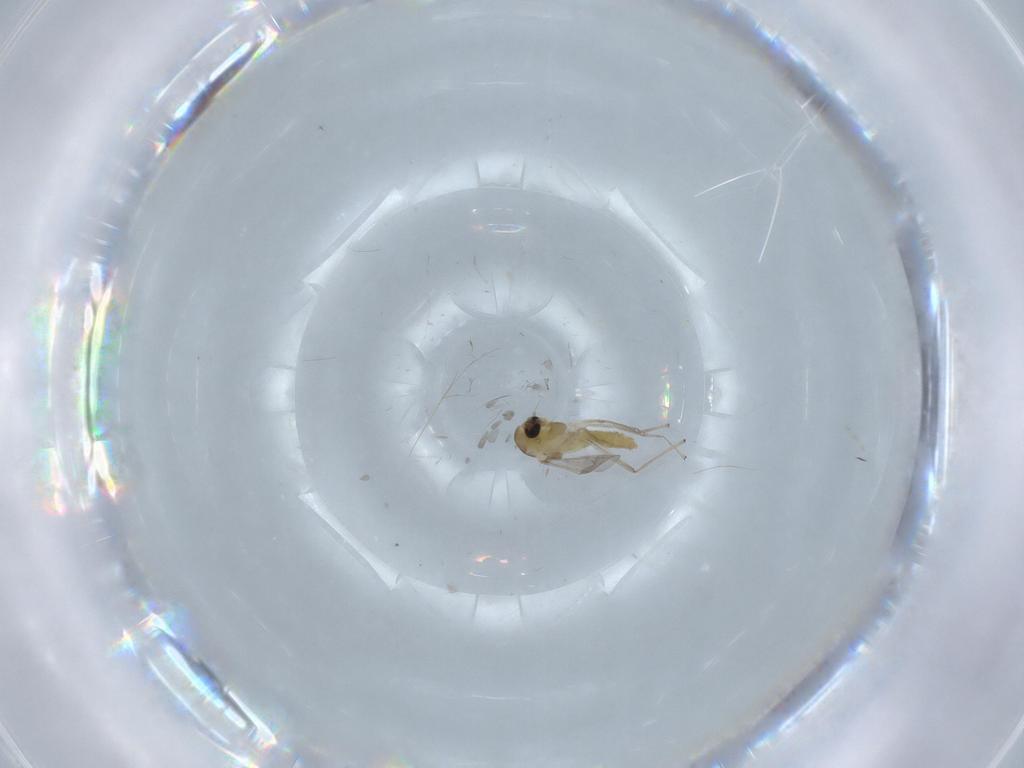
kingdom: Animalia
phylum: Arthropoda
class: Insecta
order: Diptera
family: Chironomidae
